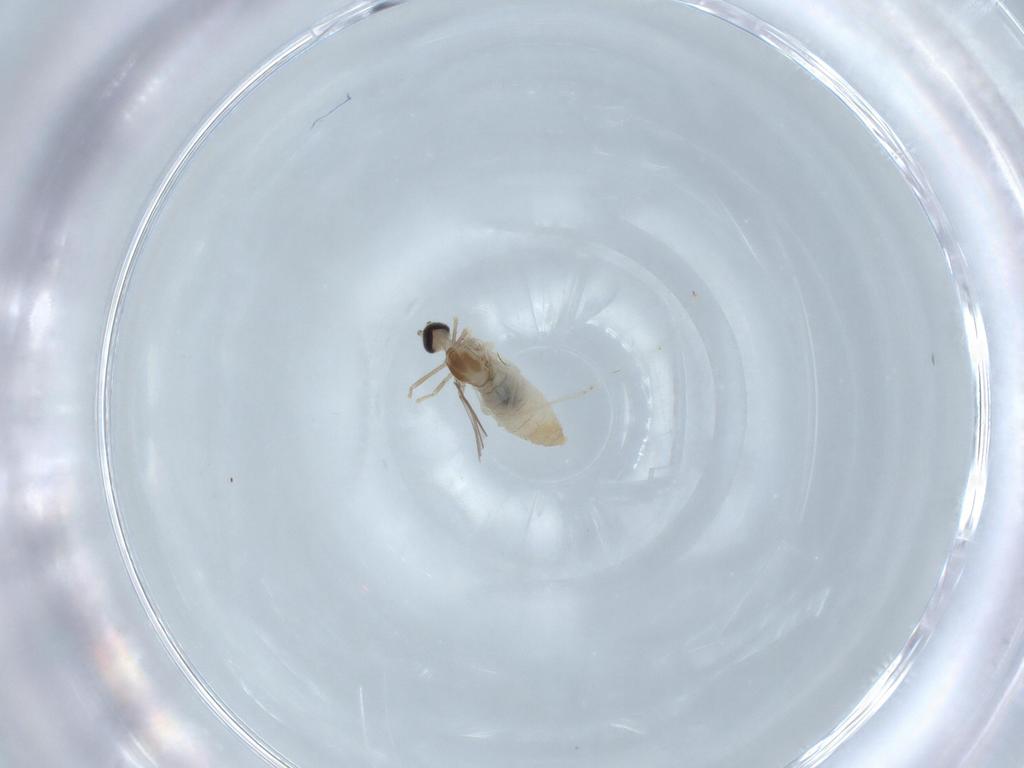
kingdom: Animalia
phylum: Arthropoda
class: Insecta
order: Diptera
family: Cecidomyiidae
